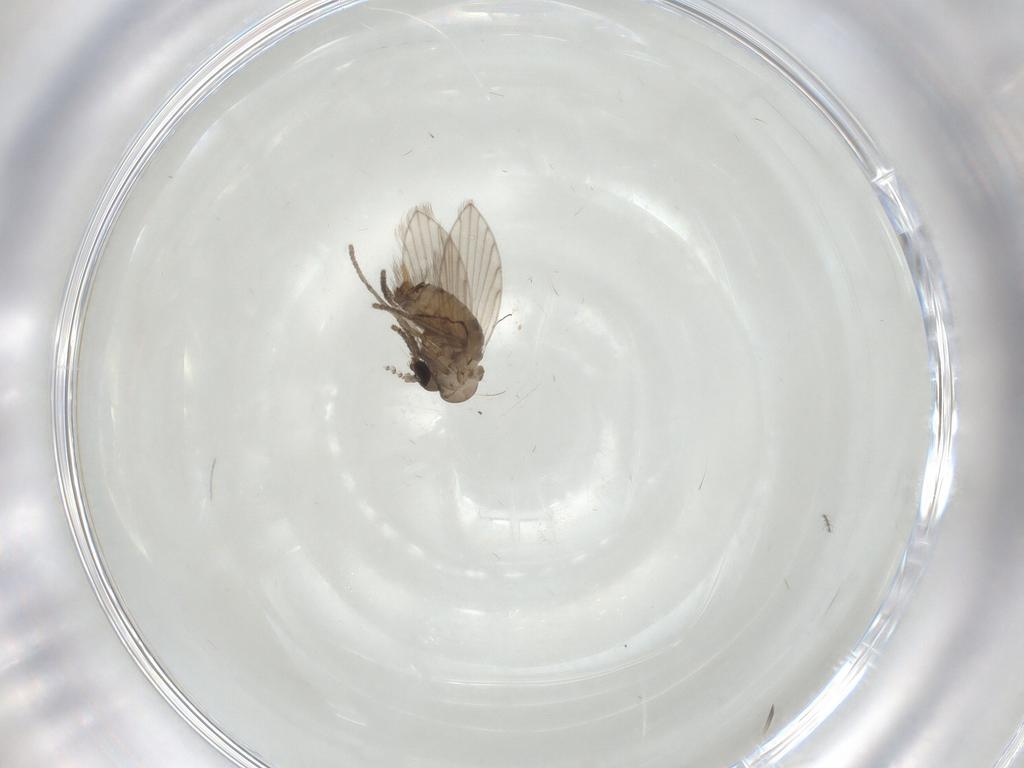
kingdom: Animalia
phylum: Arthropoda
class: Insecta
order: Diptera
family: Psychodidae
